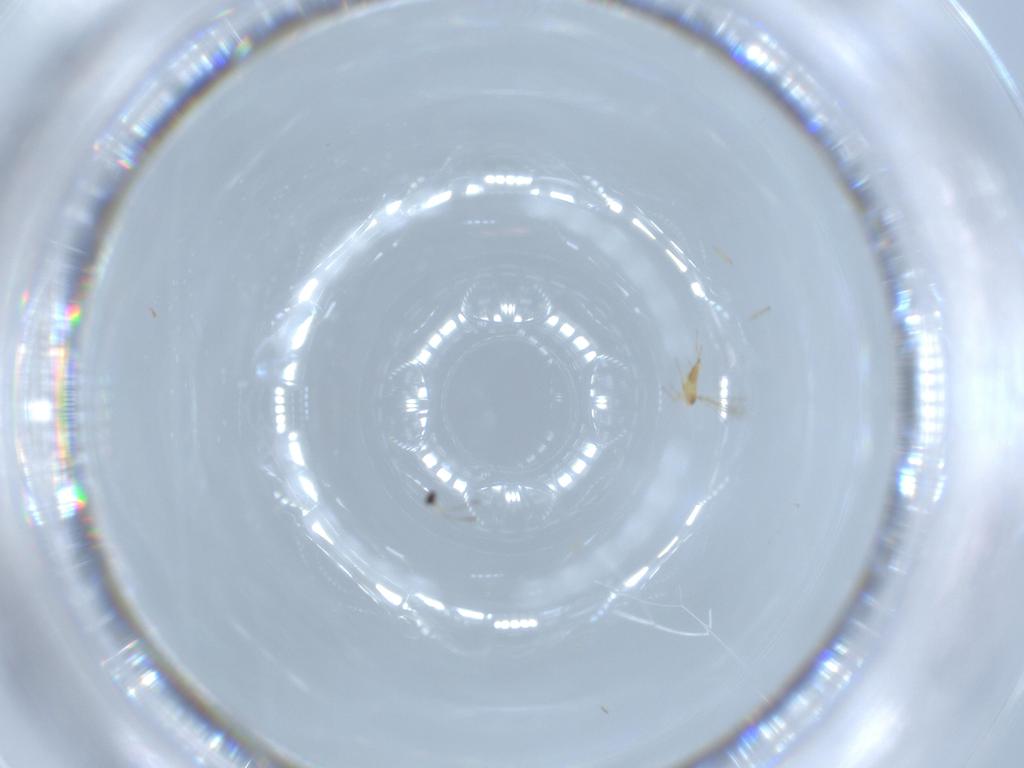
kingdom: Animalia
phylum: Arthropoda
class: Insecta
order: Hymenoptera
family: Mymaridae
